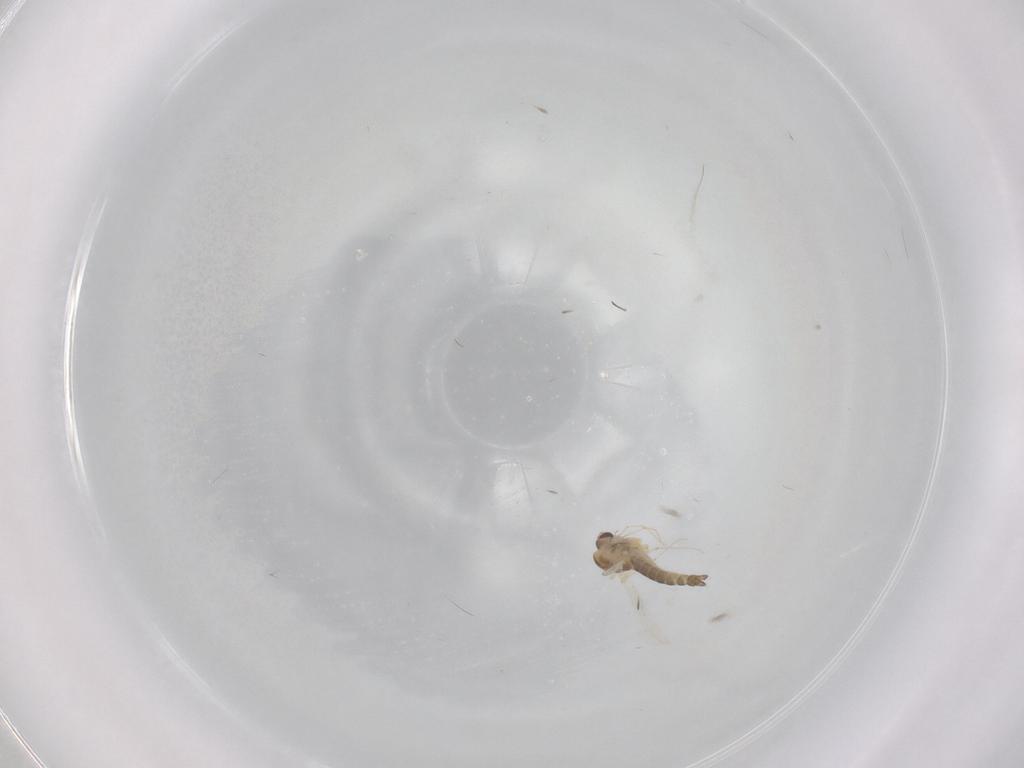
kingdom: Animalia
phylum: Arthropoda
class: Insecta
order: Diptera
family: Chironomidae
